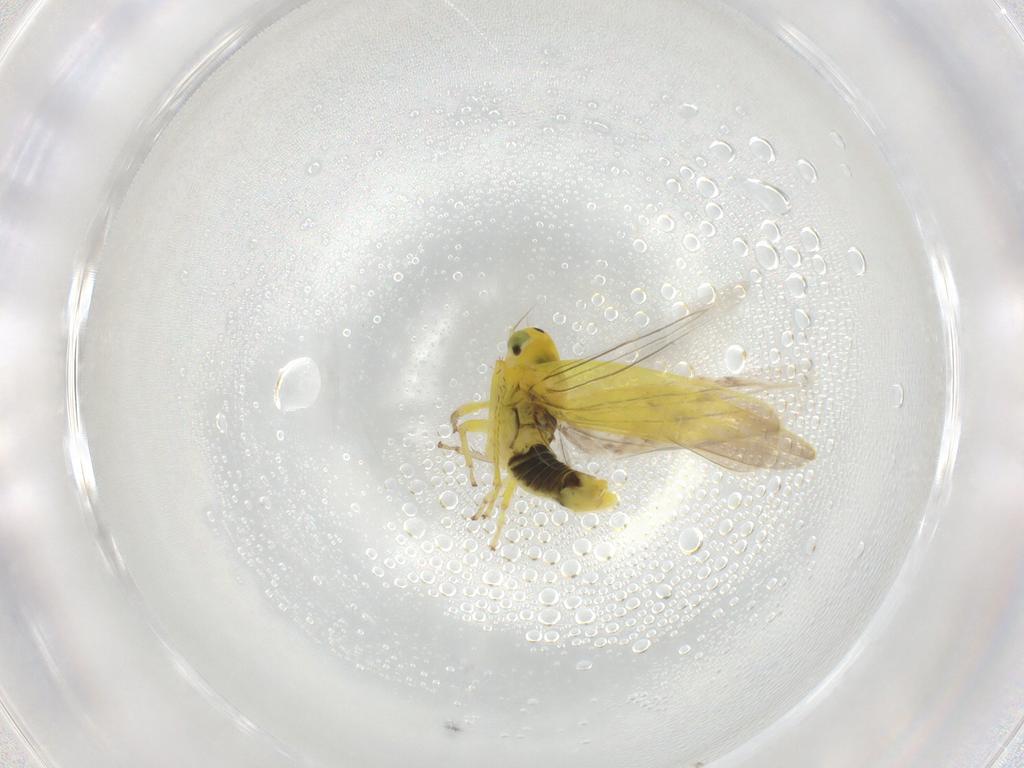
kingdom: Animalia
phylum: Arthropoda
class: Insecta
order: Hemiptera
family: Cicadellidae
